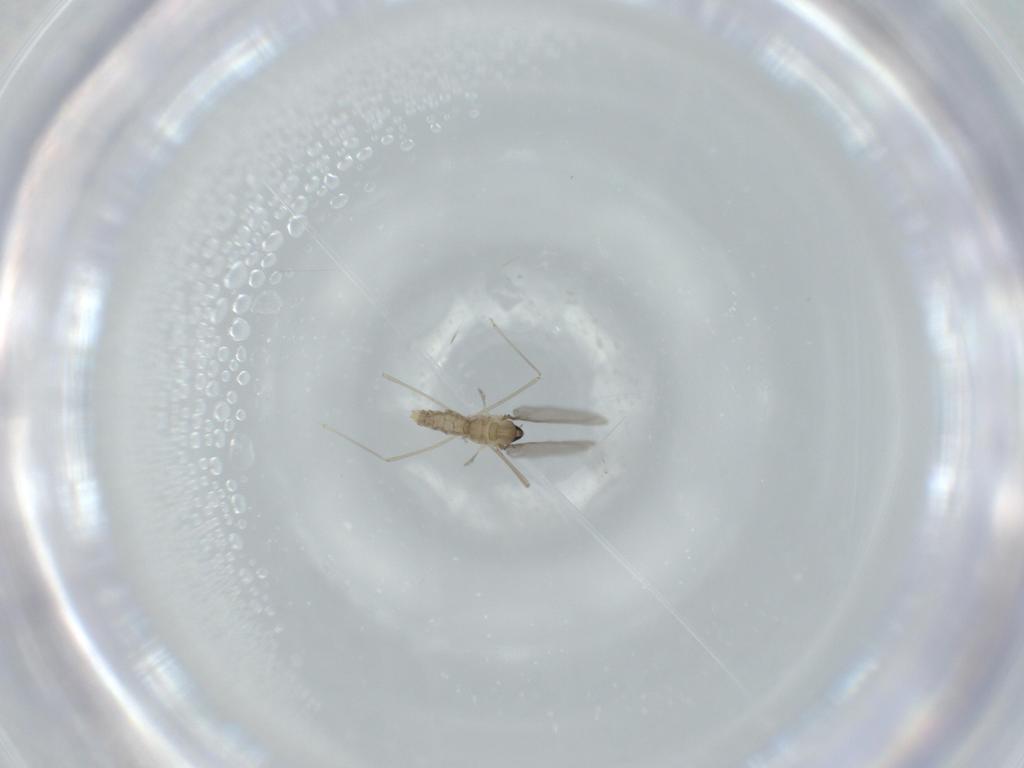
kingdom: Animalia
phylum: Arthropoda
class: Insecta
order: Diptera
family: Cecidomyiidae
